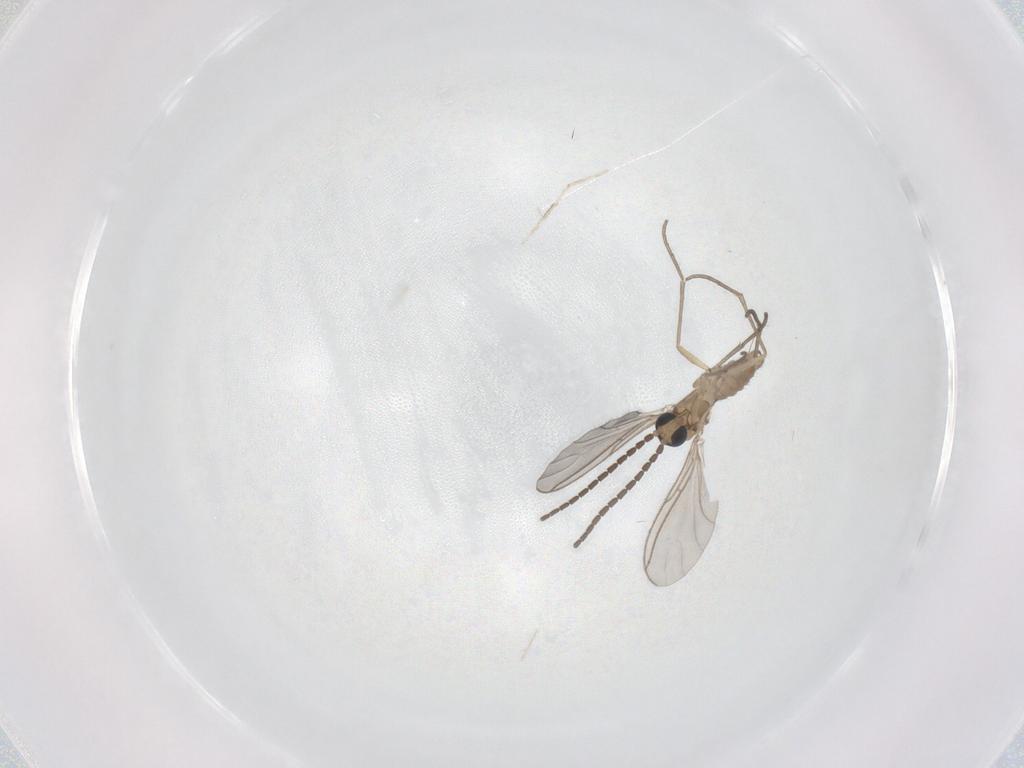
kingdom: Animalia
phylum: Arthropoda
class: Insecta
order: Diptera
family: Sciaridae
